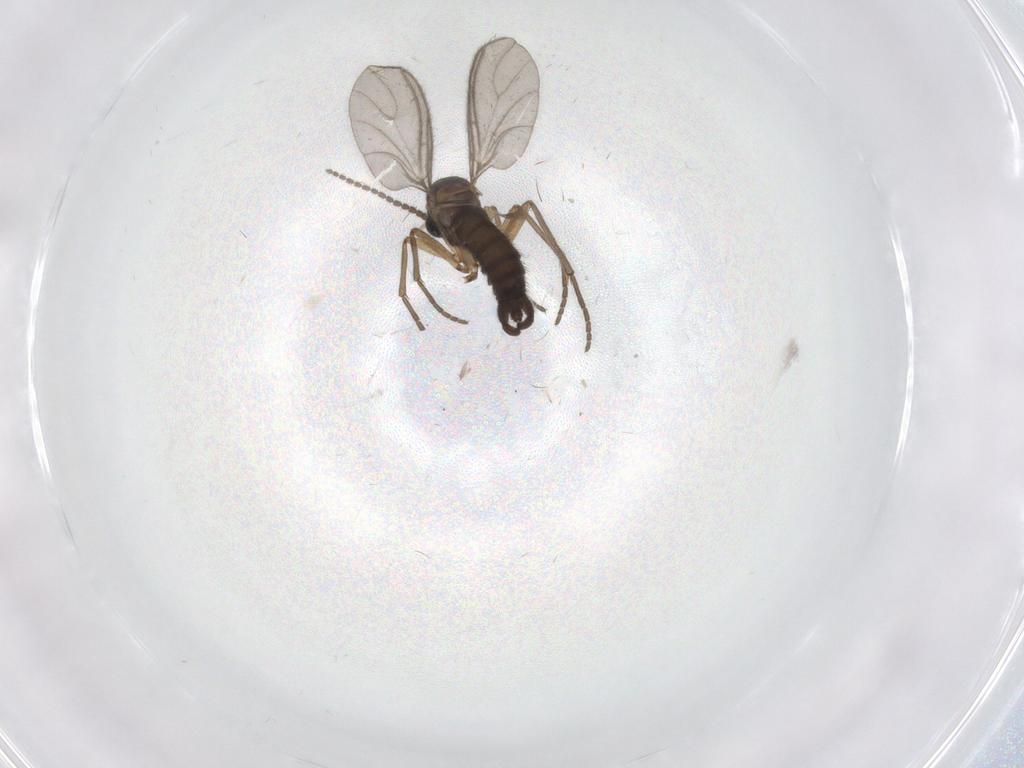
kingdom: Animalia
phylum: Arthropoda
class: Insecta
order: Diptera
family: Sciaridae
